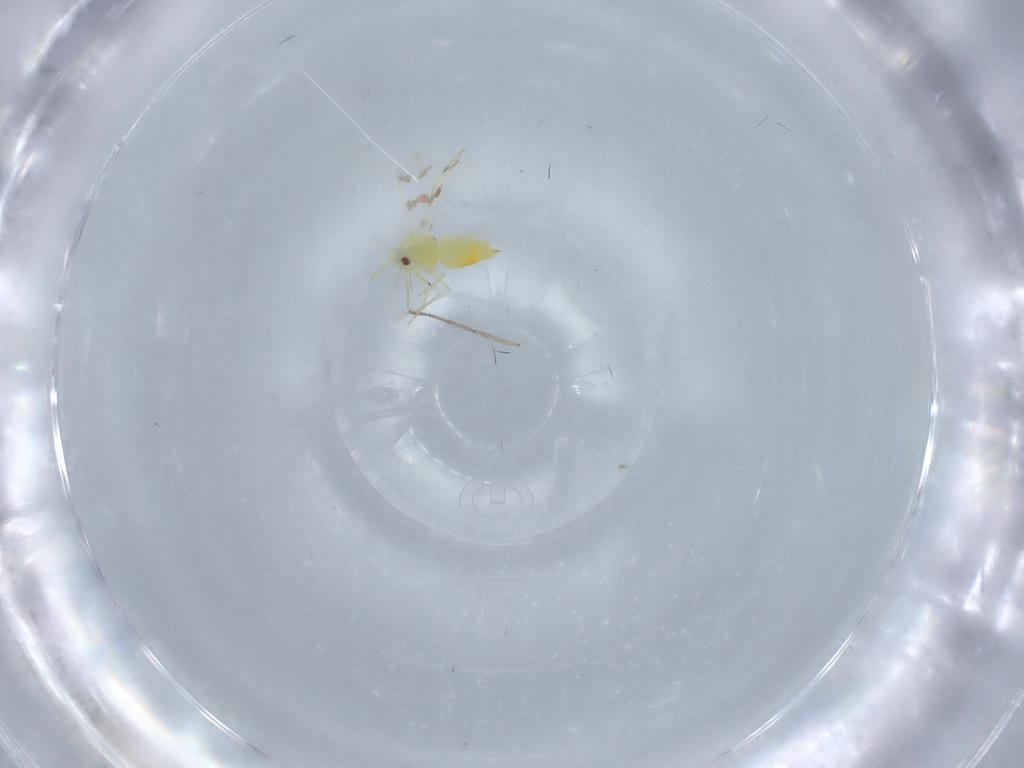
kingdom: Animalia
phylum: Arthropoda
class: Insecta
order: Hemiptera
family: Aleyrodidae
